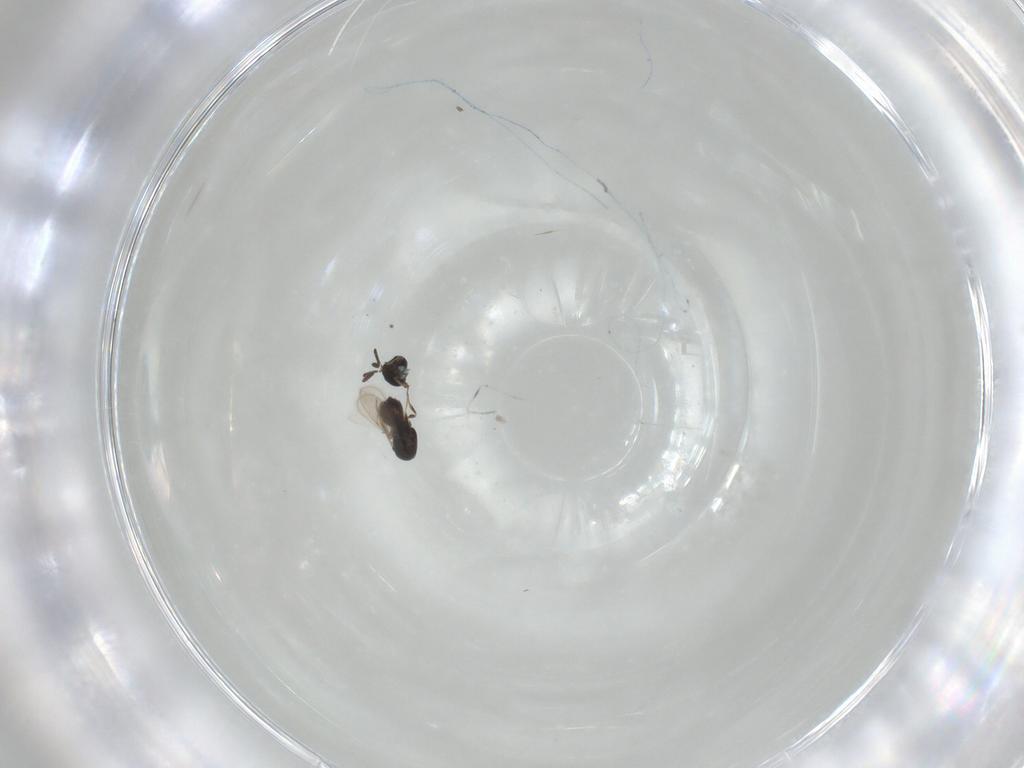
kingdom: Animalia
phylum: Arthropoda
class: Insecta
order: Hymenoptera
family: Scelionidae
